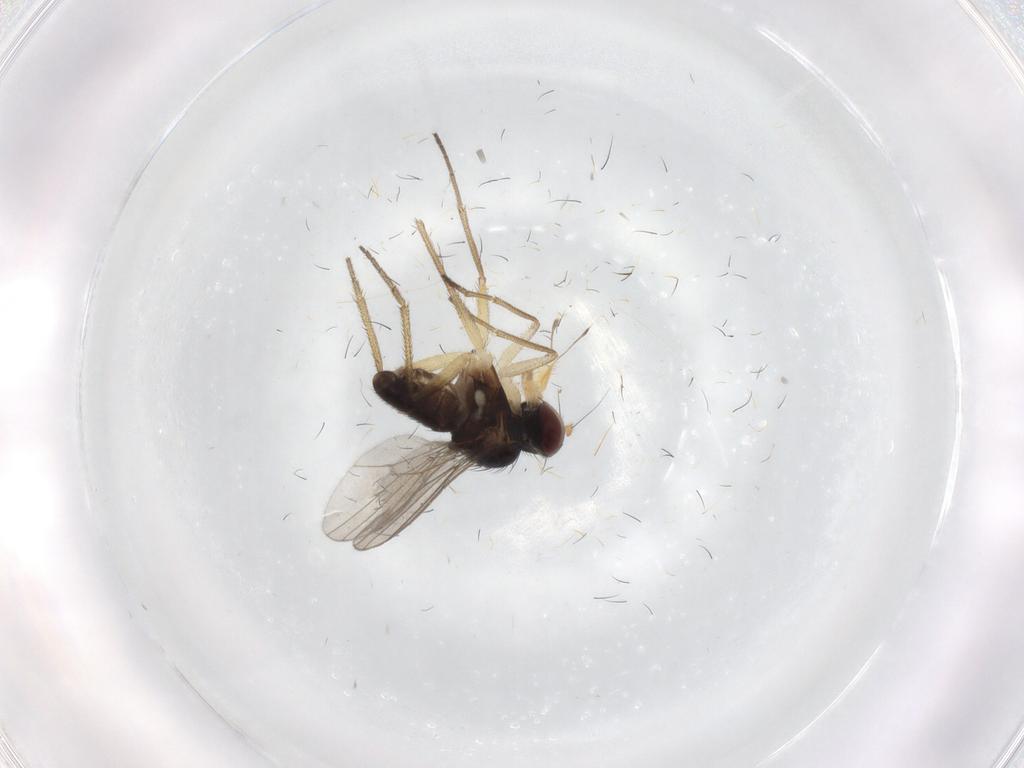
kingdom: Animalia
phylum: Arthropoda
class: Insecta
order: Diptera
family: Dolichopodidae
